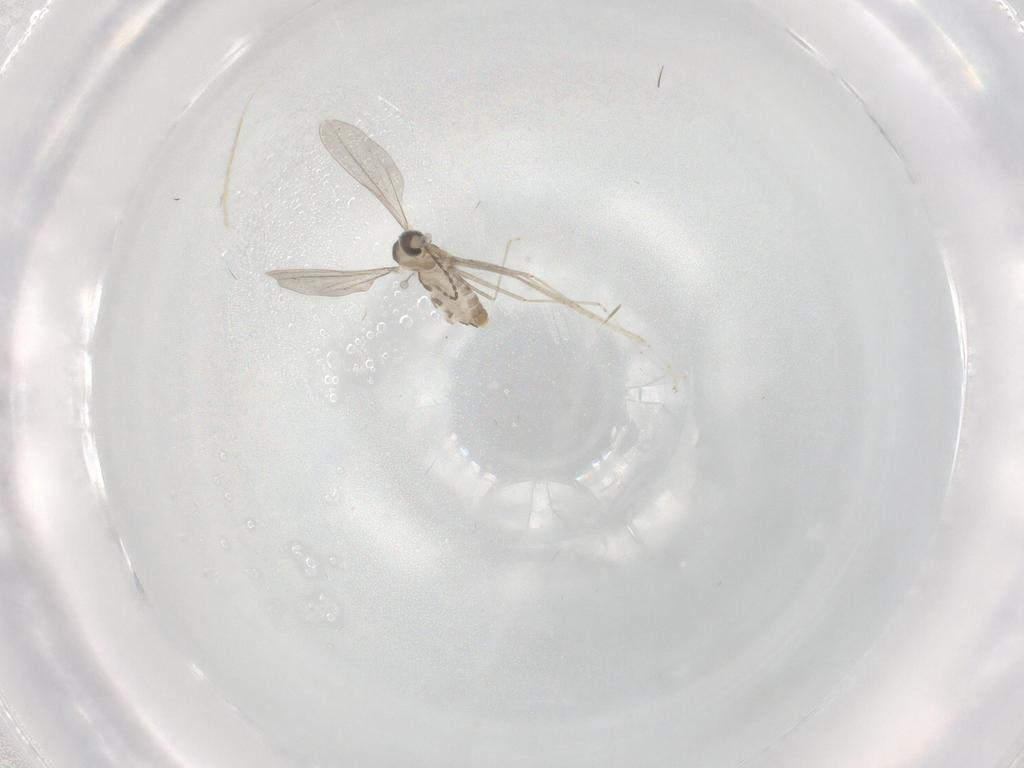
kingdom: Animalia
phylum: Arthropoda
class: Insecta
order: Diptera
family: Cecidomyiidae
